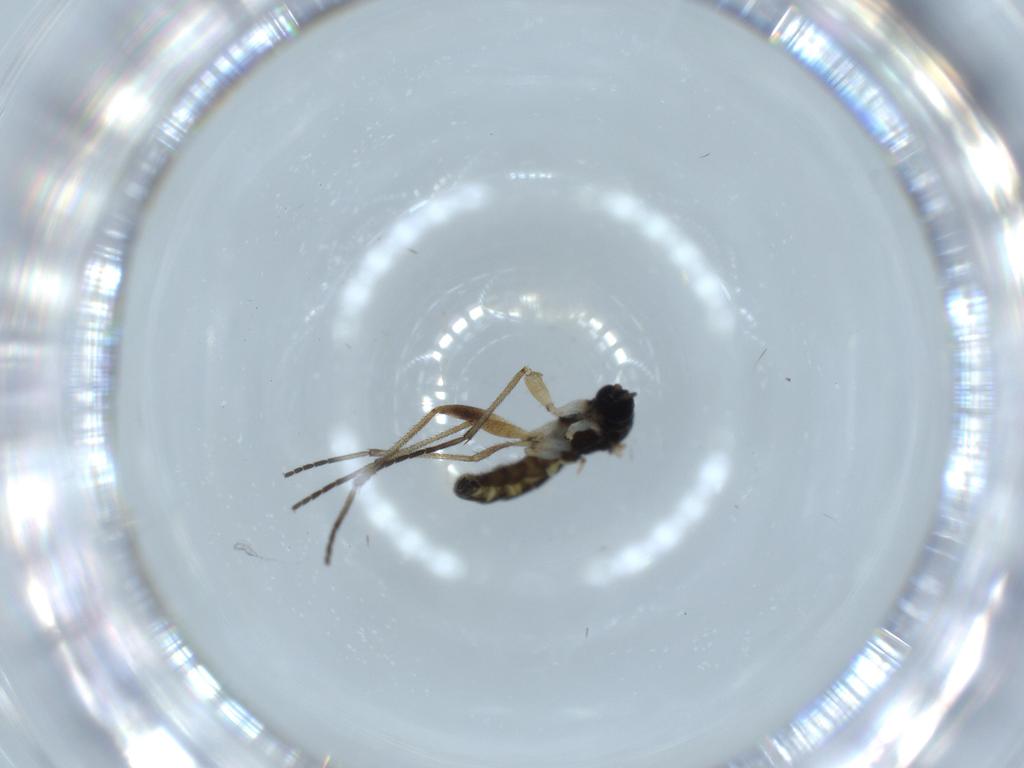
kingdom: Animalia
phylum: Arthropoda
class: Insecta
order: Diptera
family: Sciaridae
